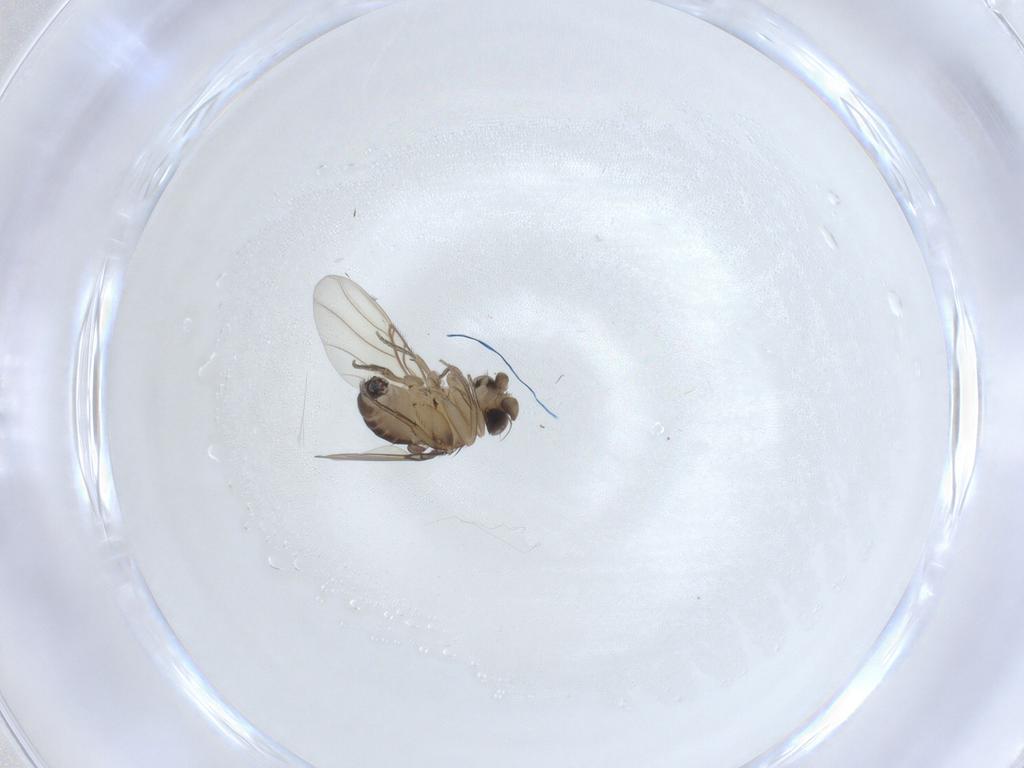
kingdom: Animalia
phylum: Arthropoda
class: Insecta
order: Diptera
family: Phoridae
